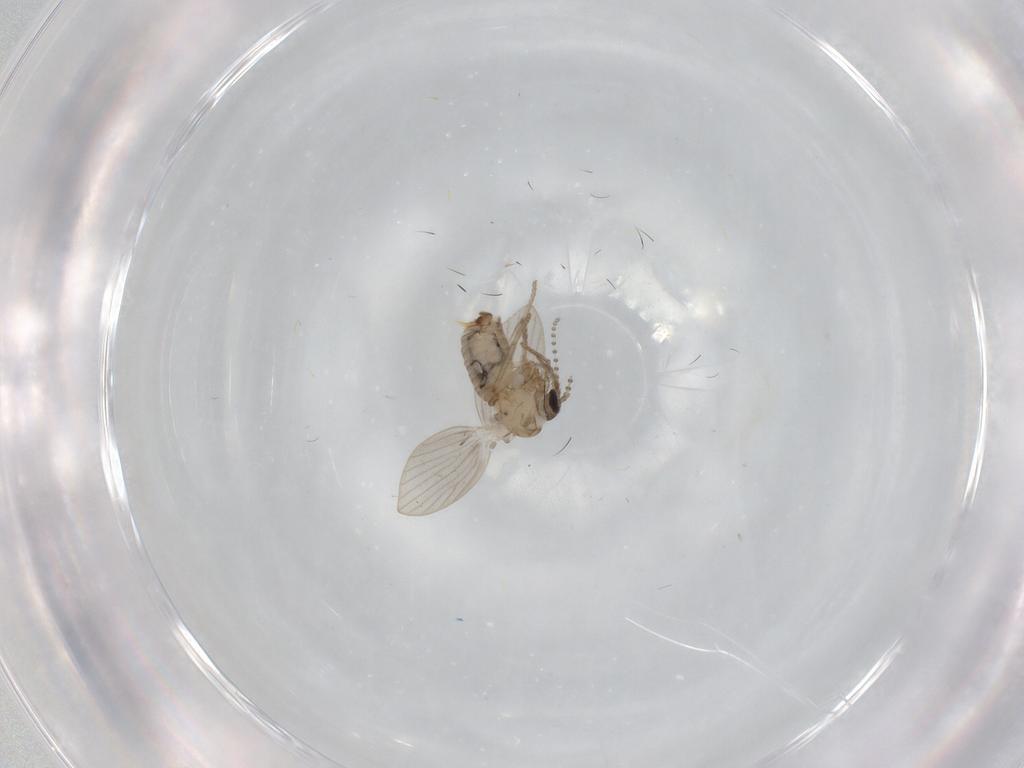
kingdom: Animalia
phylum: Arthropoda
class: Insecta
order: Diptera
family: Psychodidae
